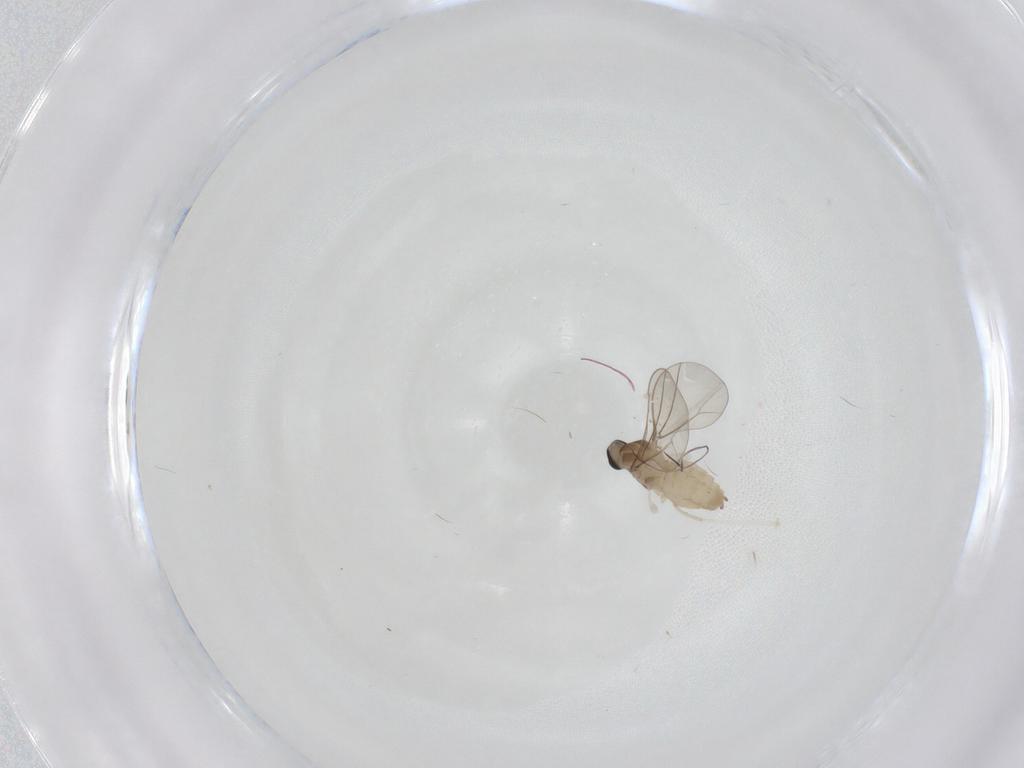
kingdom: Animalia
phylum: Arthropoda
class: Insecta
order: Diptera
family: Cecidomyiidae
